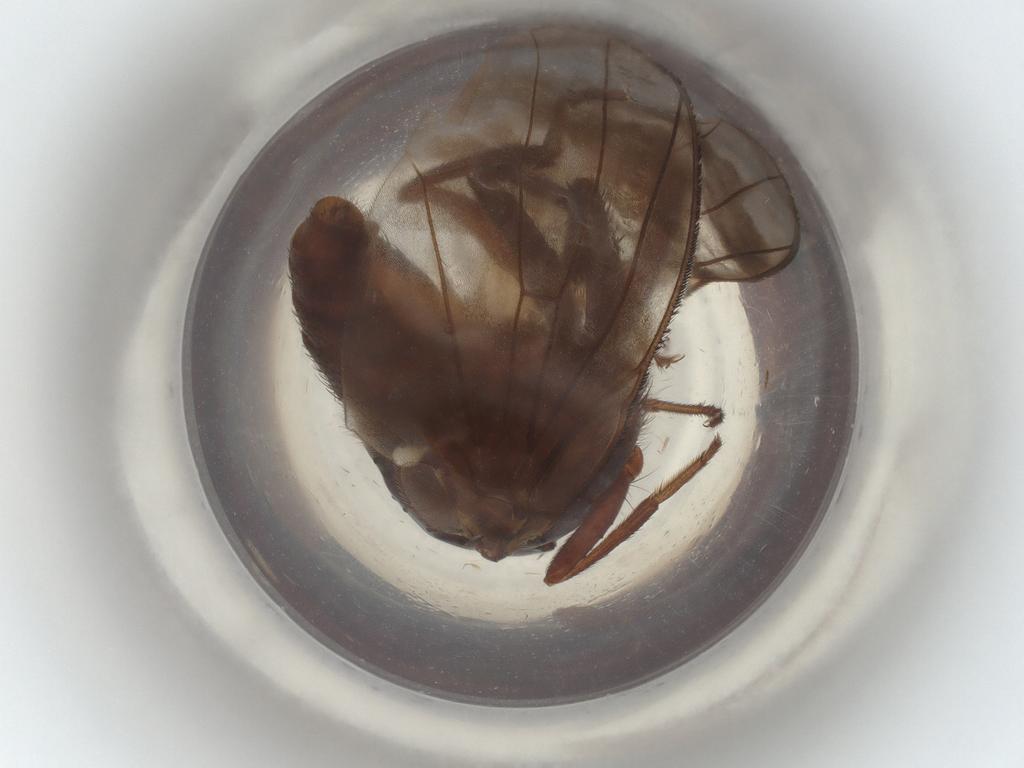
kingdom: Animalia
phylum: Arthropoda
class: Insecta
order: Diptera
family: Lauxaniidae
